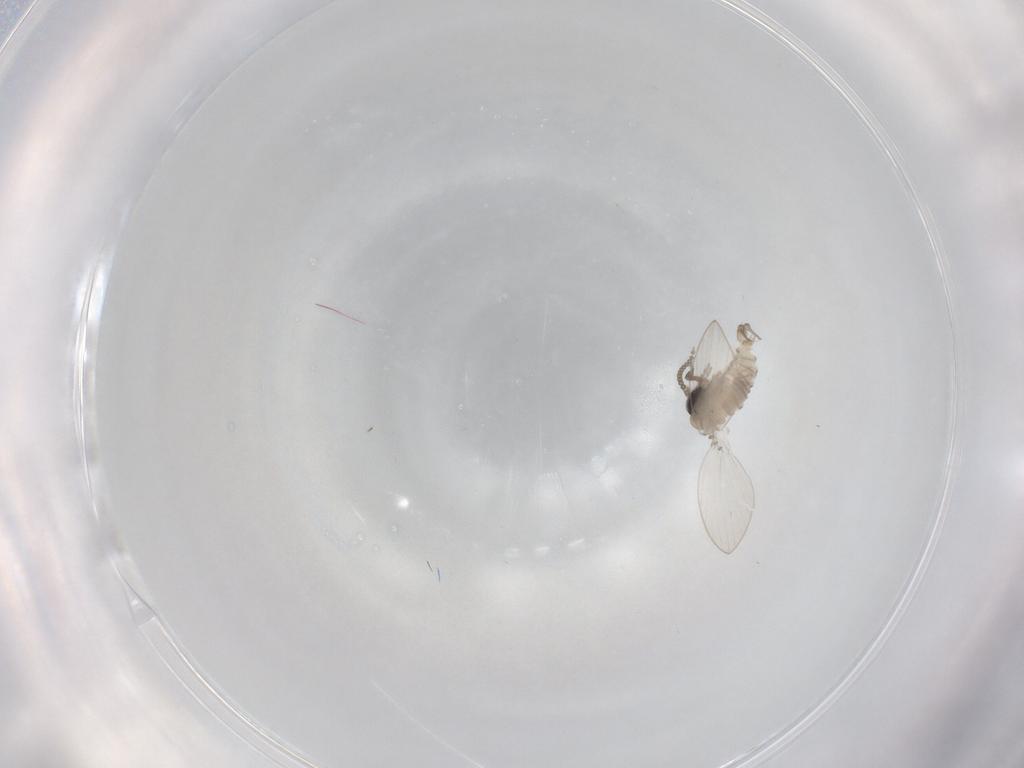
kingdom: Animalia
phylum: Arthropoda
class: Insecta
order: Diptera
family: Psychodidae
